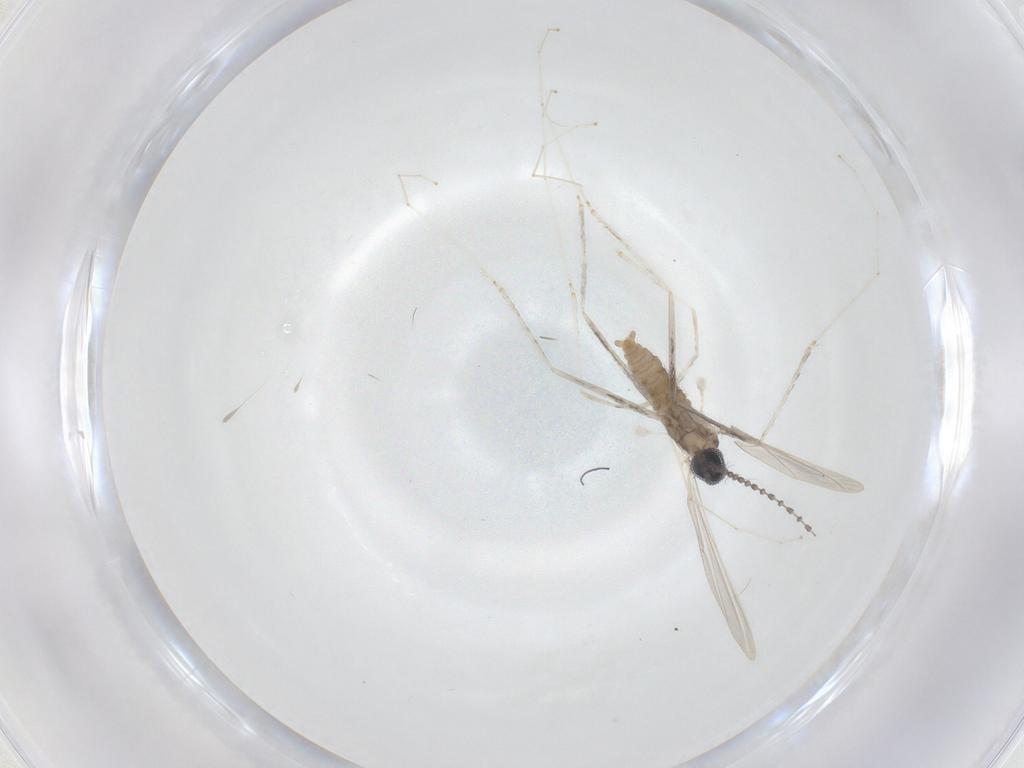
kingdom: Animalia
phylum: Arthropoda
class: Insecta
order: Diptera
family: Cecidomyiidae
